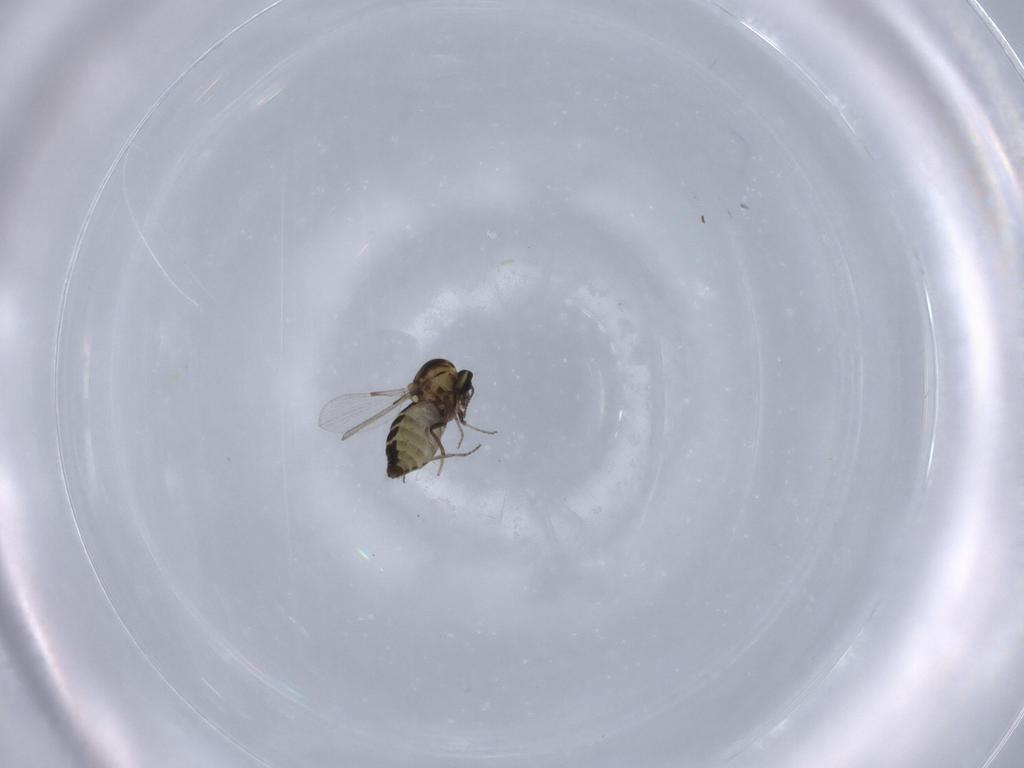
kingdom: Animalia
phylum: Arthropoda
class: Insecta
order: Diptera
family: Ceratopogonidae
